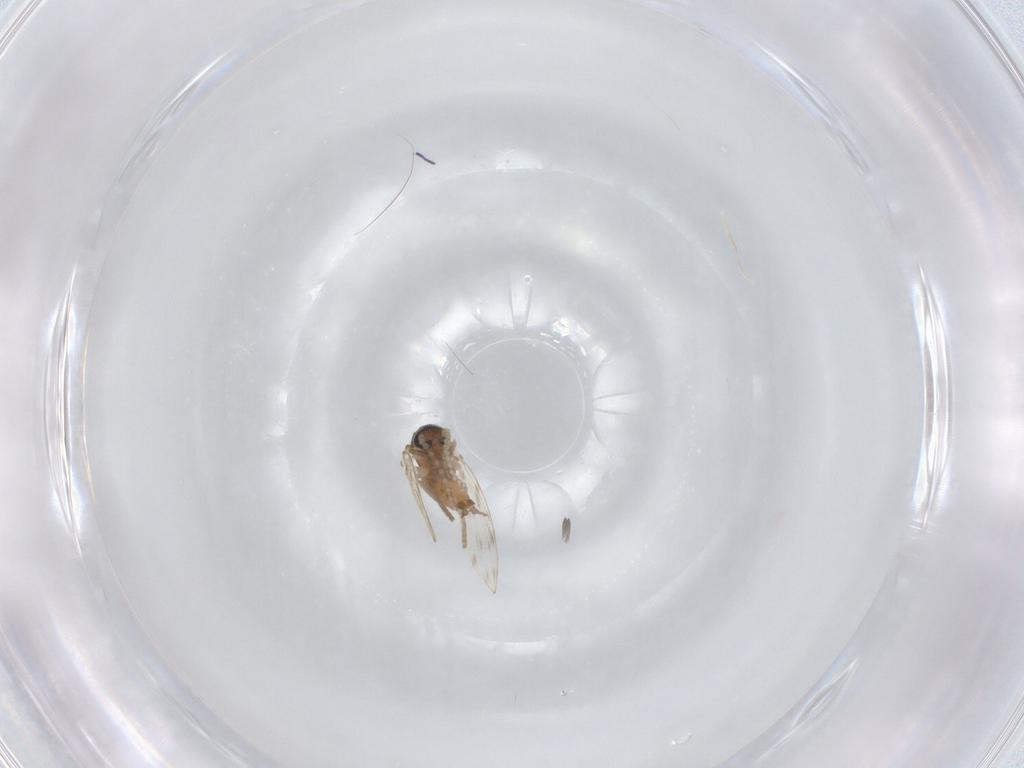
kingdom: Animalia
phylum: Arthropoda
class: Insecta
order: Diptera
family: Psychodidae
